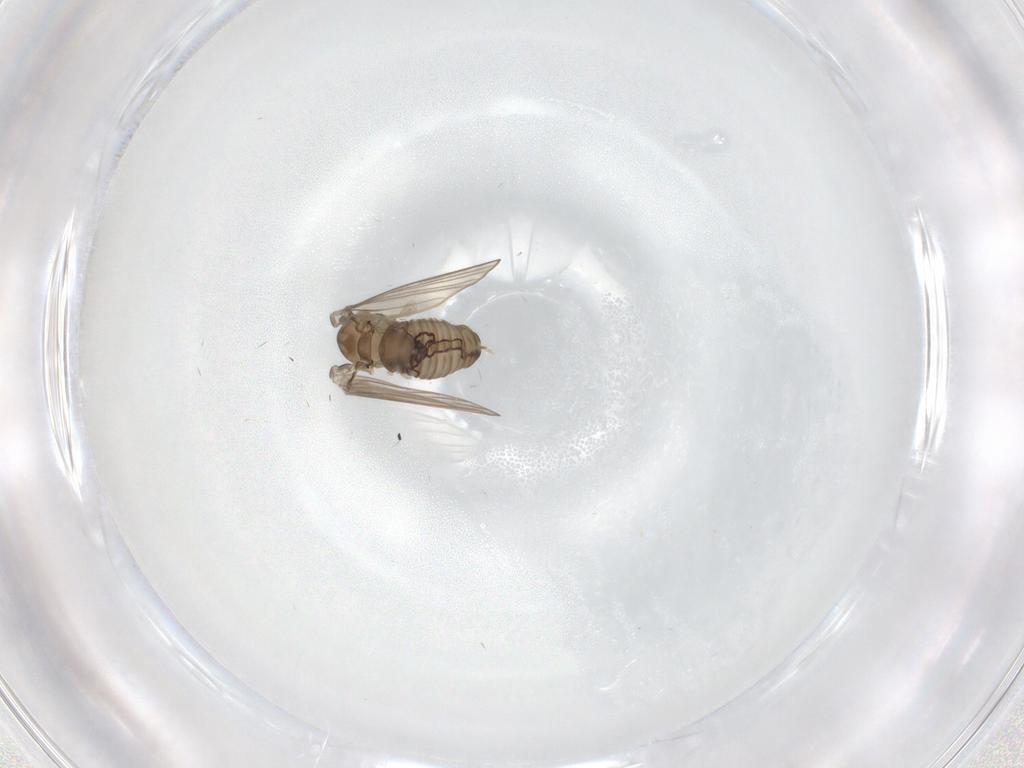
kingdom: Animalia
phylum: Arthropoda
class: Insecta
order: Diptera
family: Psychodidae
